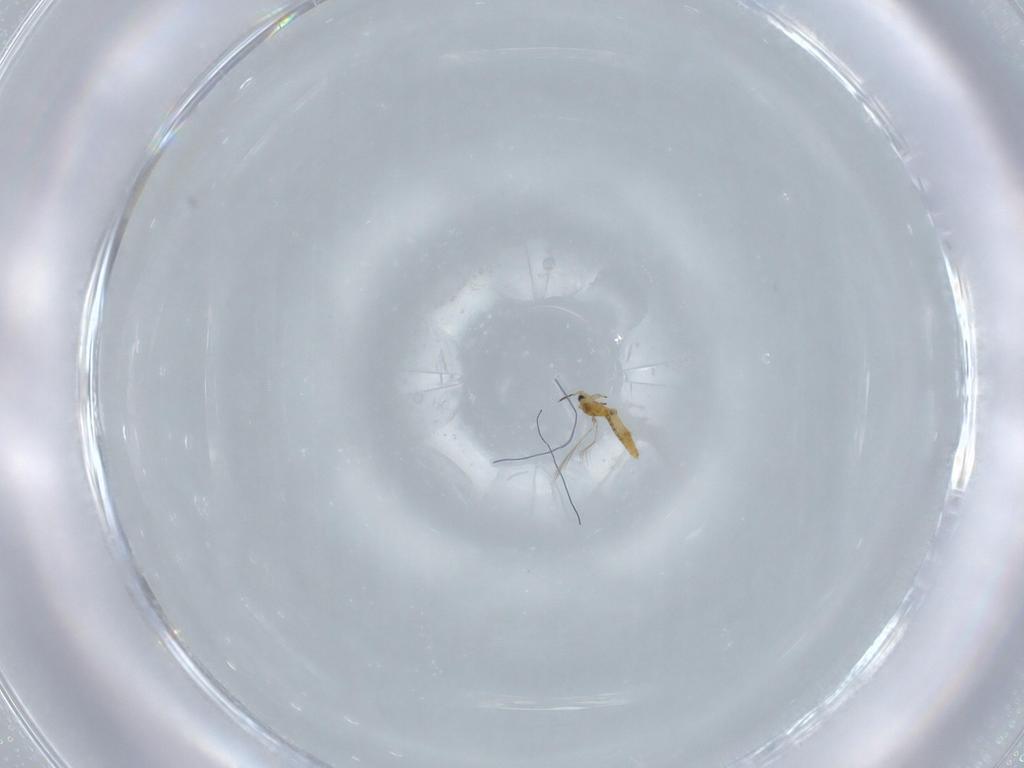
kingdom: Animalia
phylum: Arthropoda
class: Insecta
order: Thysanoptera
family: Thripidae
